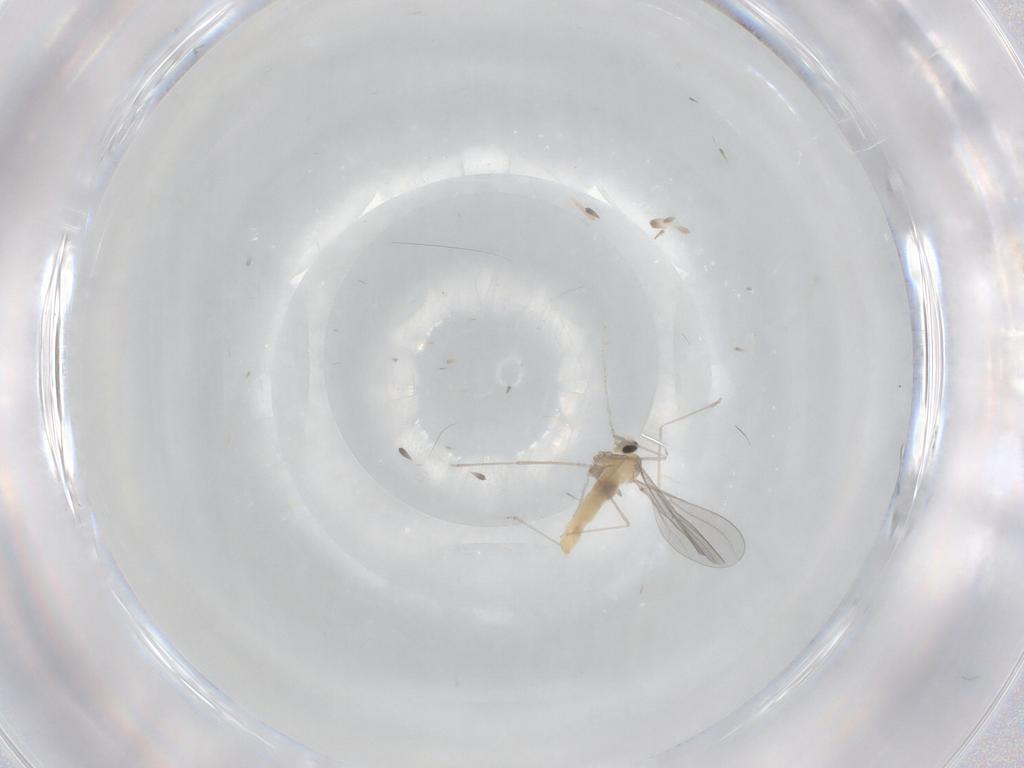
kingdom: Animalia
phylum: Arthropoda
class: Insecta
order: Diptera
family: Cecidomyiidae
